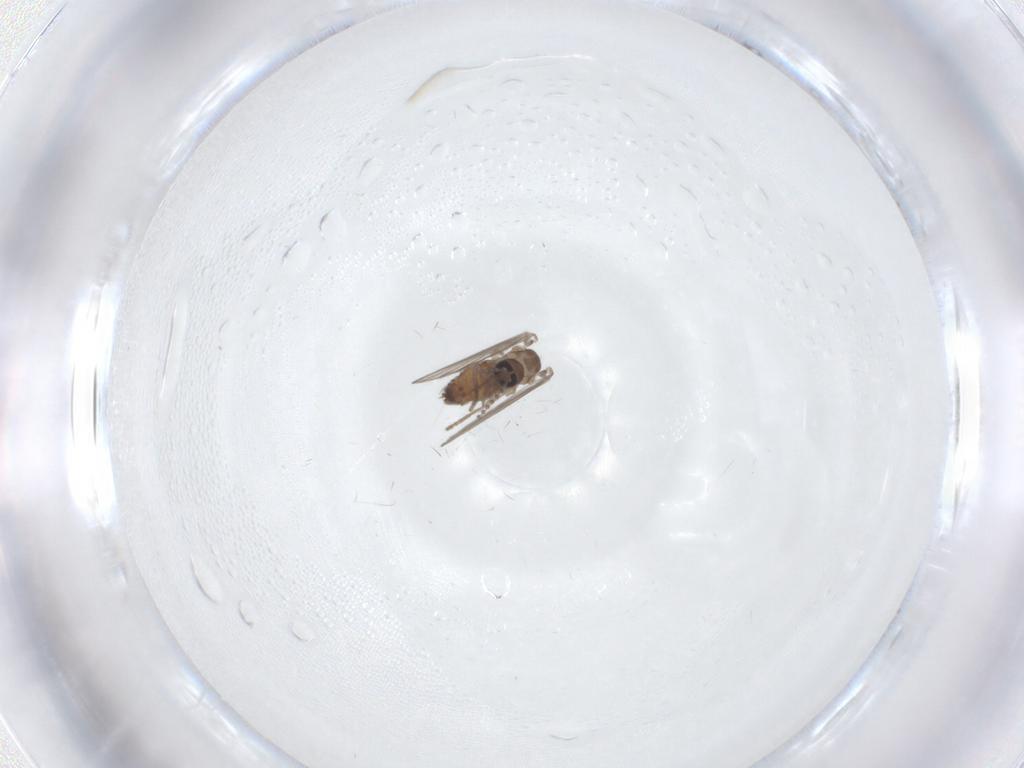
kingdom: Animalia
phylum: Arthropoda
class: Insecta
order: Diptera
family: Psychodidae
